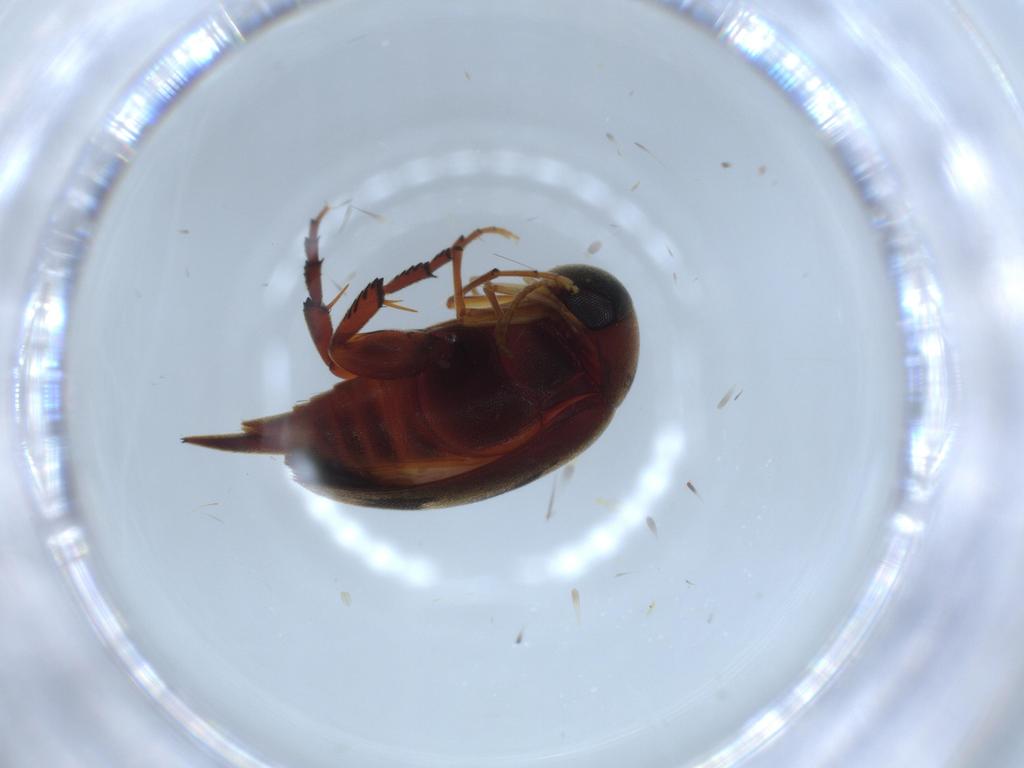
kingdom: Animalia
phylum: Arthropoda
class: Insecta
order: Coleoptera
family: Mordellidae
